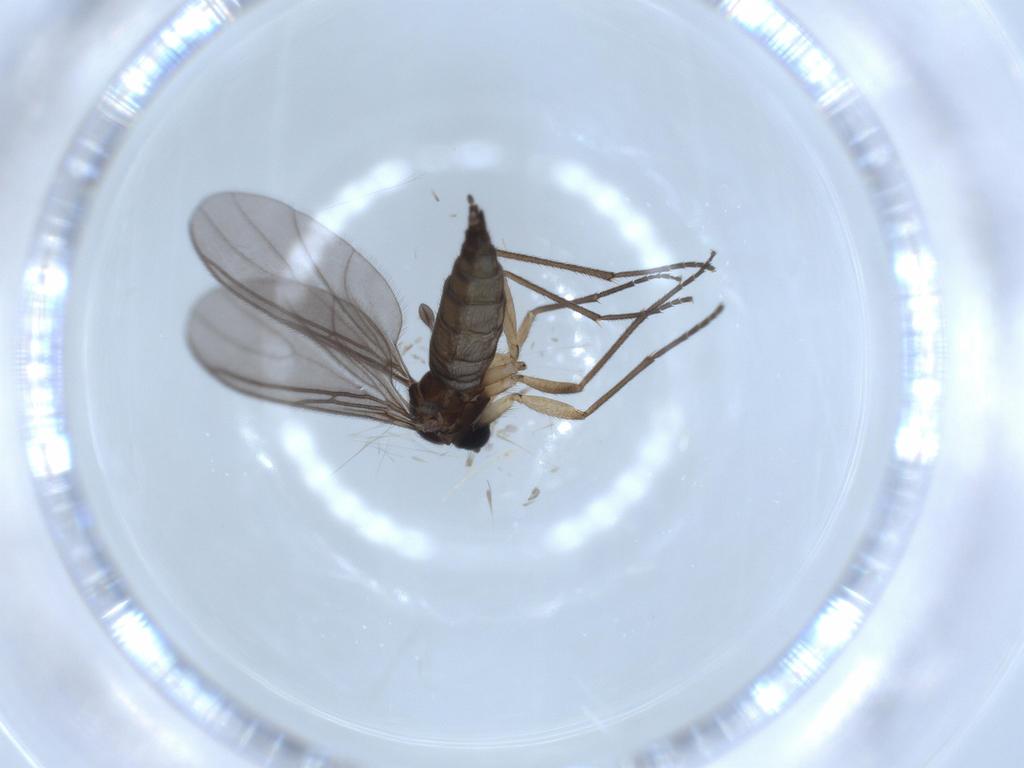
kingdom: Animalia
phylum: Arthropoda
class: Insecta
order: Diptera
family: Sciaridae
